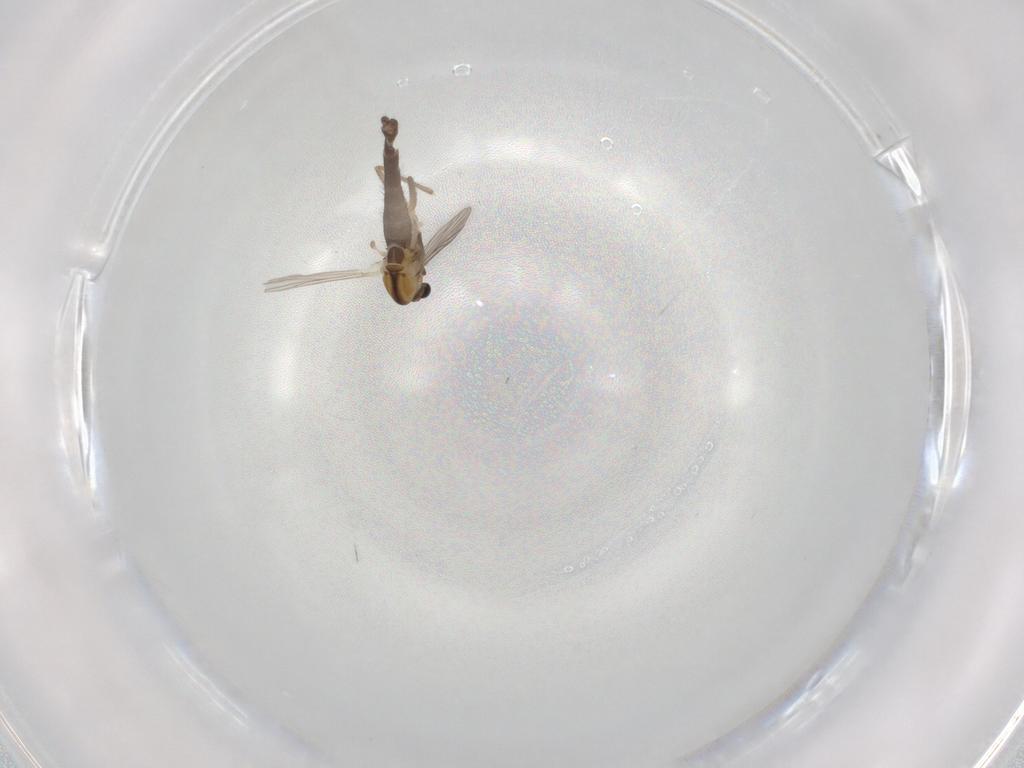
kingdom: Animalia
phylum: Arthropoda
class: Insecta
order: Diptera
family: Chironomidae
